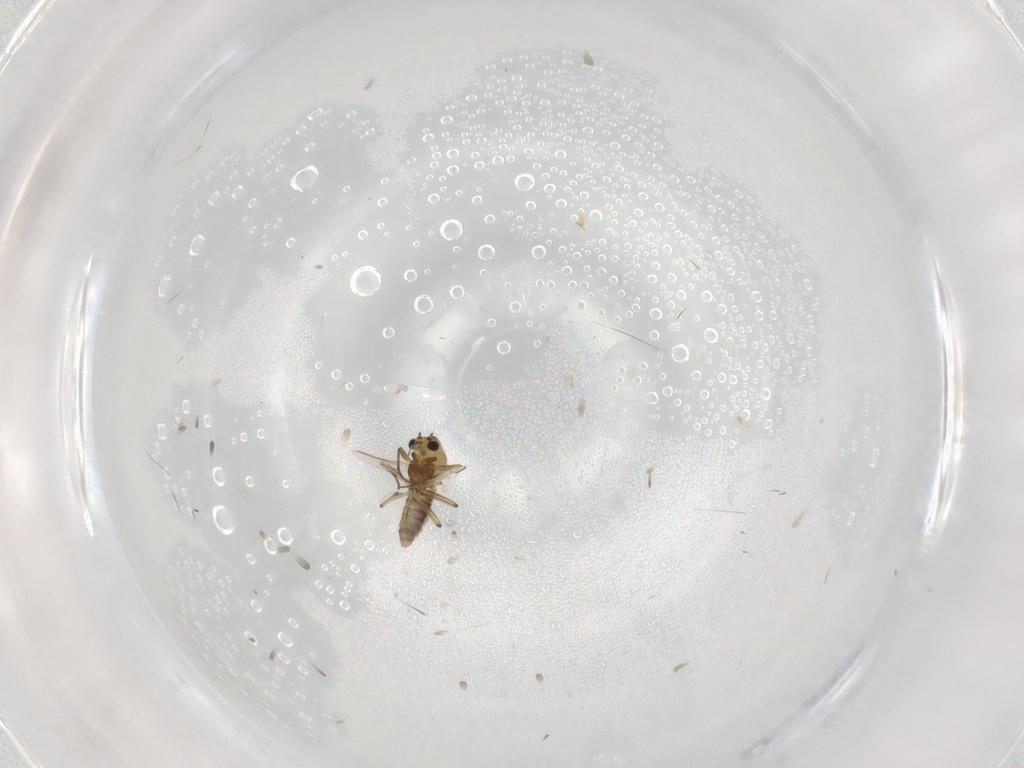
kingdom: Animalia
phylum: Arthropoda
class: Insecta
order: Diptera
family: Chironomidae
